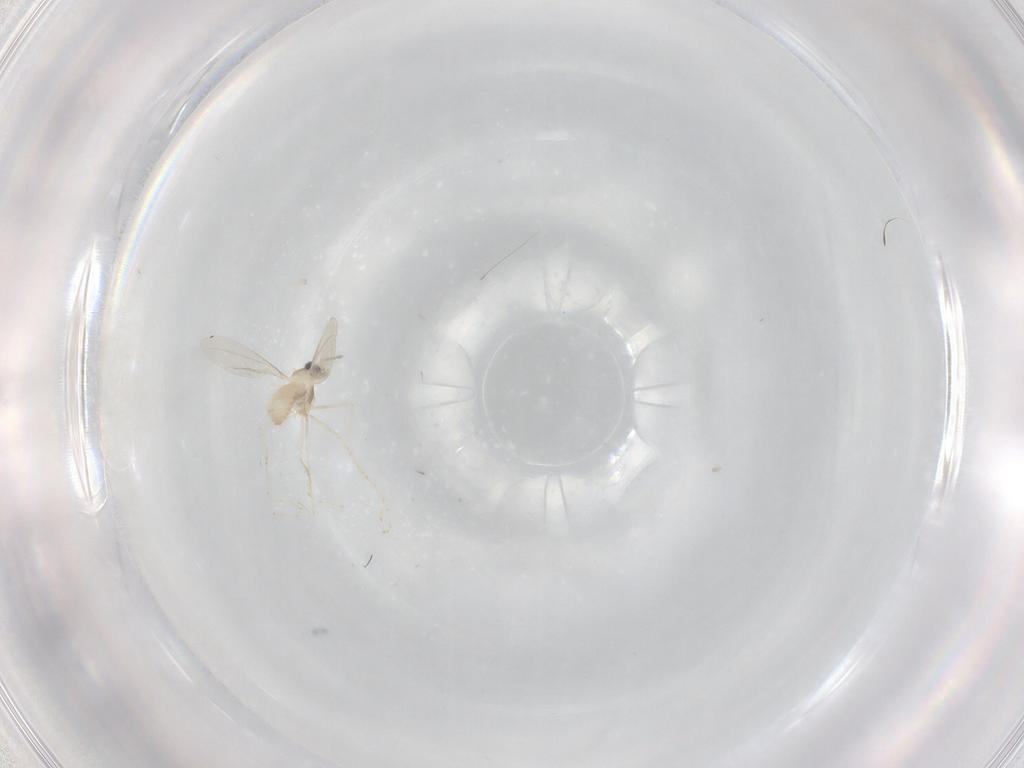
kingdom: Animalia
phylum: Arthropoda
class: Insecta
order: Diptera
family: Cecidomyiidae
